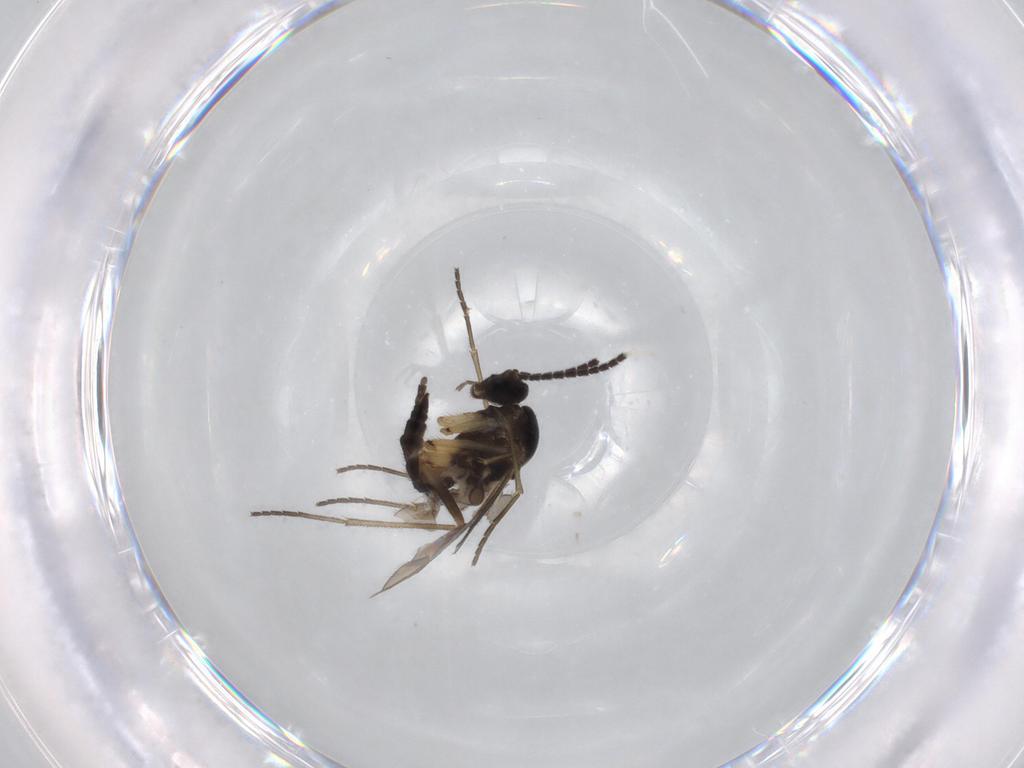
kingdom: Animalia
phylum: Arthropoda
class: Insecta
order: Diptera
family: Sciaridae
